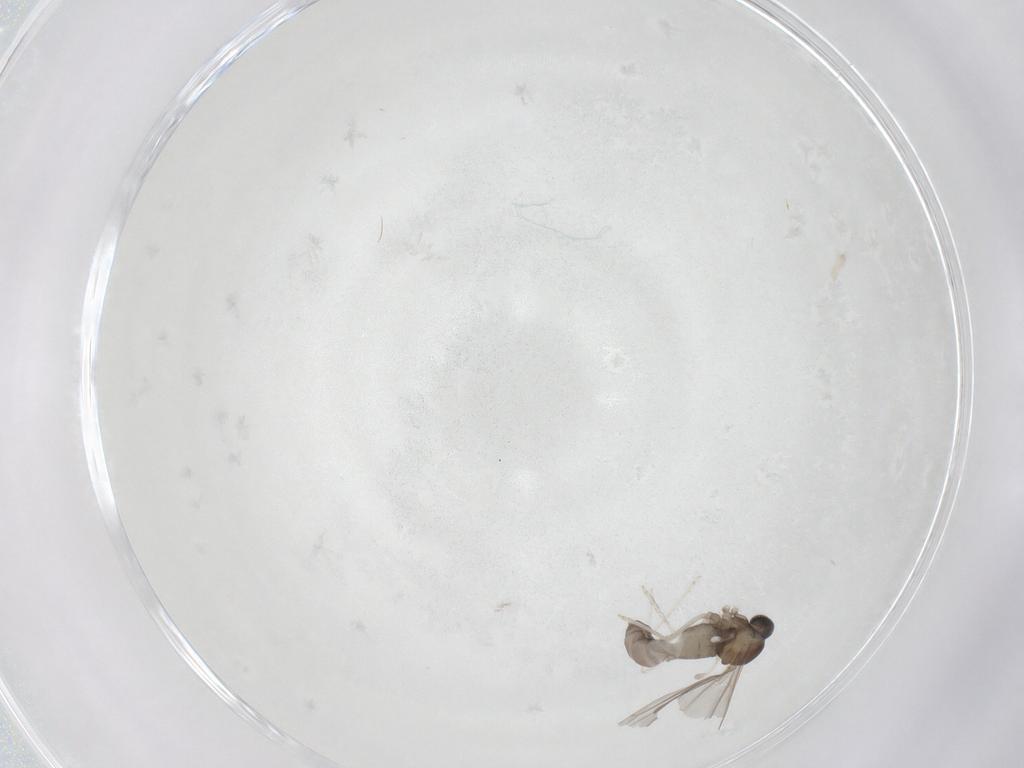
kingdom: Animalia
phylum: Arthropoda
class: Insecta
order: Diptera
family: Cecidomyiidae
